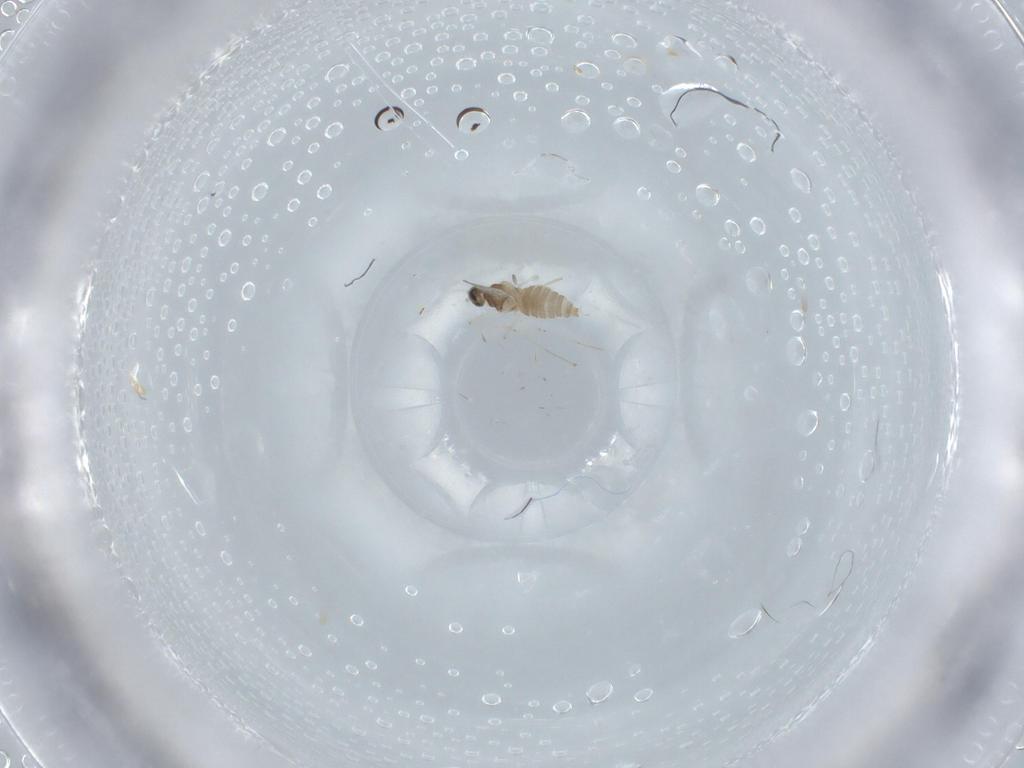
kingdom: Animalia
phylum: Arthropoda
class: Insecta
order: Diptera
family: Cecidomyiidae
